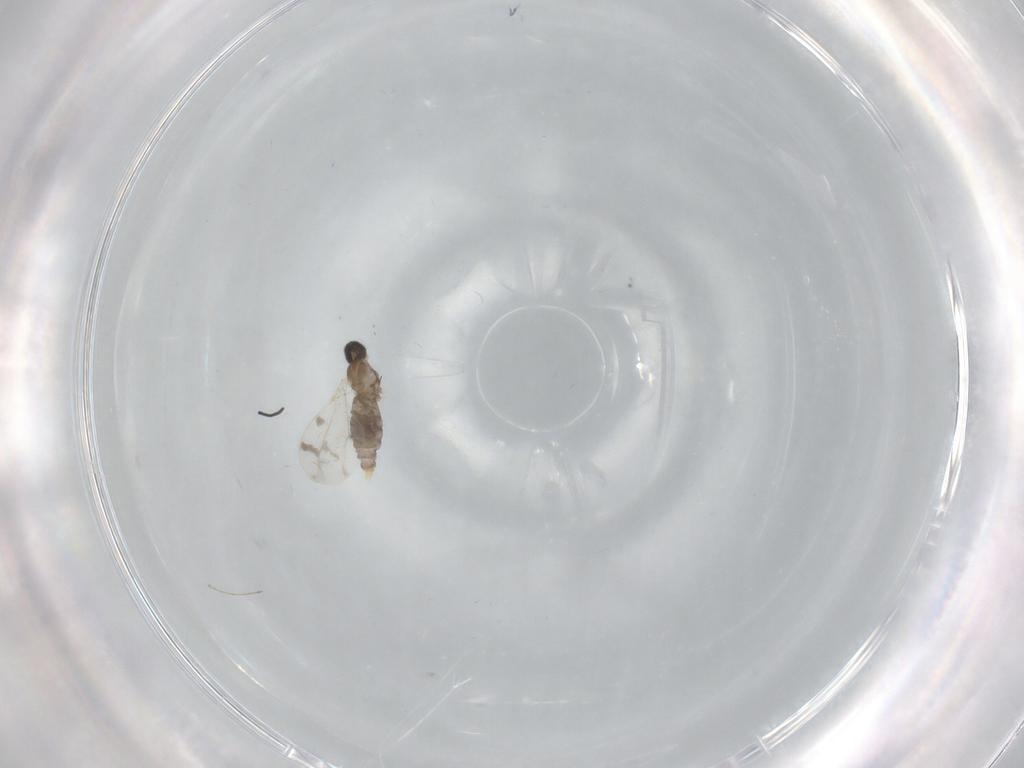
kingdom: Animalia
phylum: Arthropoda
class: Insecta
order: Diptera
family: Cecidomyiidae
